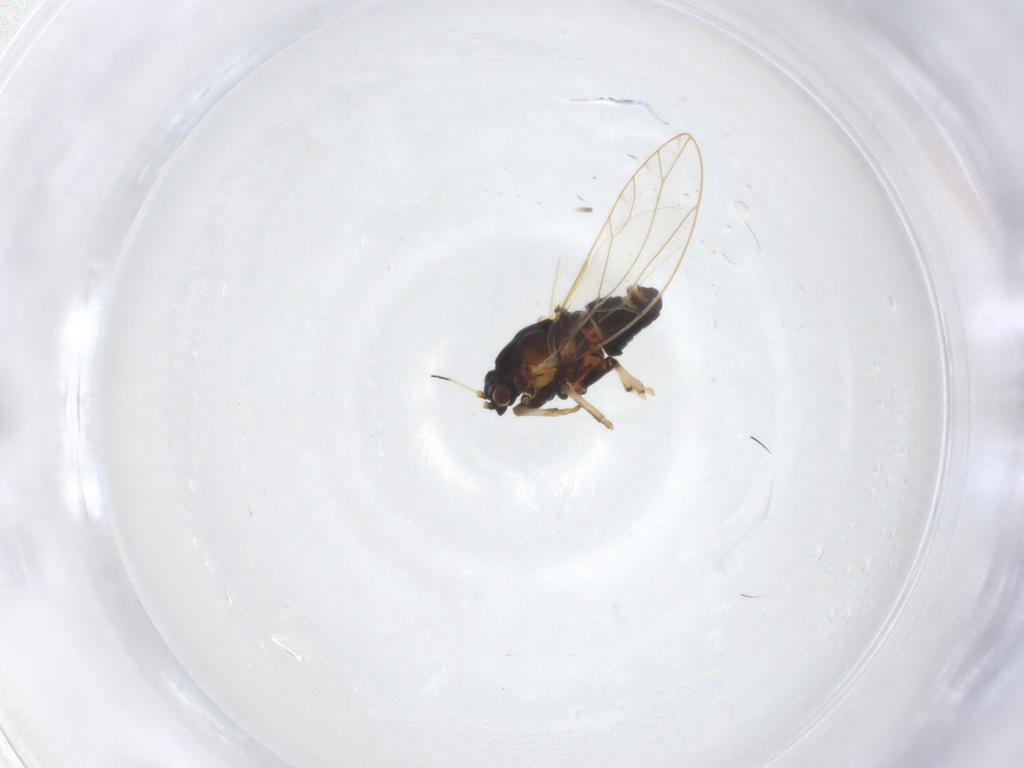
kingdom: Animalia
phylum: Arthropoda
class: Insecta
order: Hemiptera
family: Triozidae
